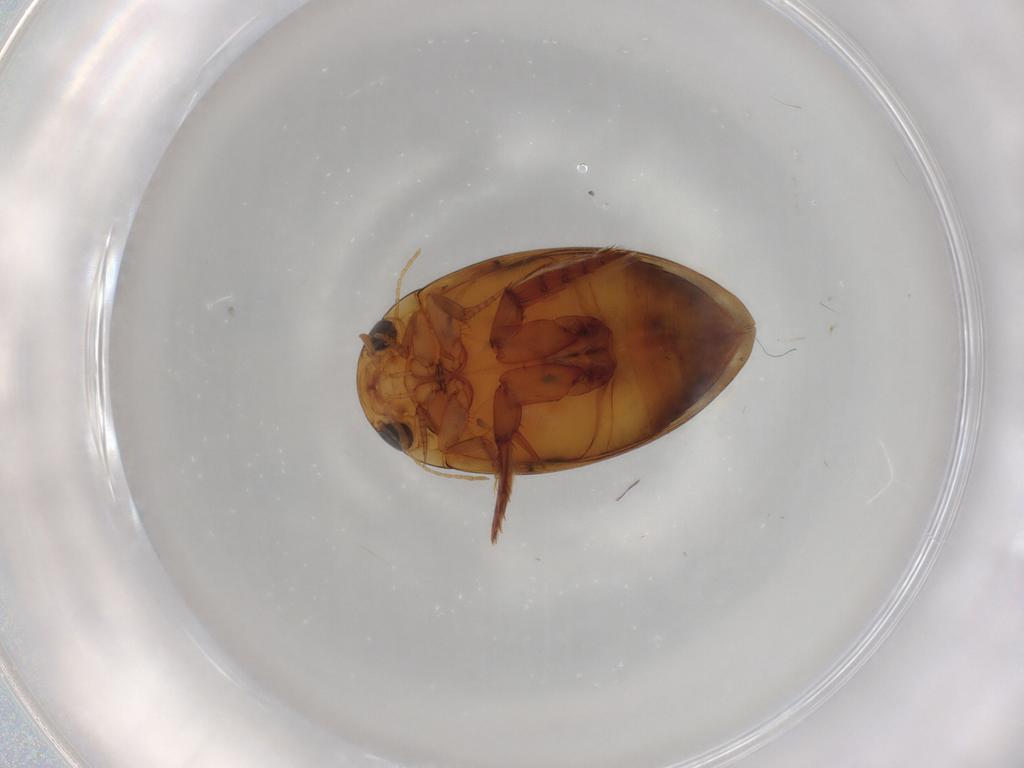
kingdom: Animalia
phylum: Arthropoda
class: Insecta
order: Coleoptera
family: Dytiscidae
